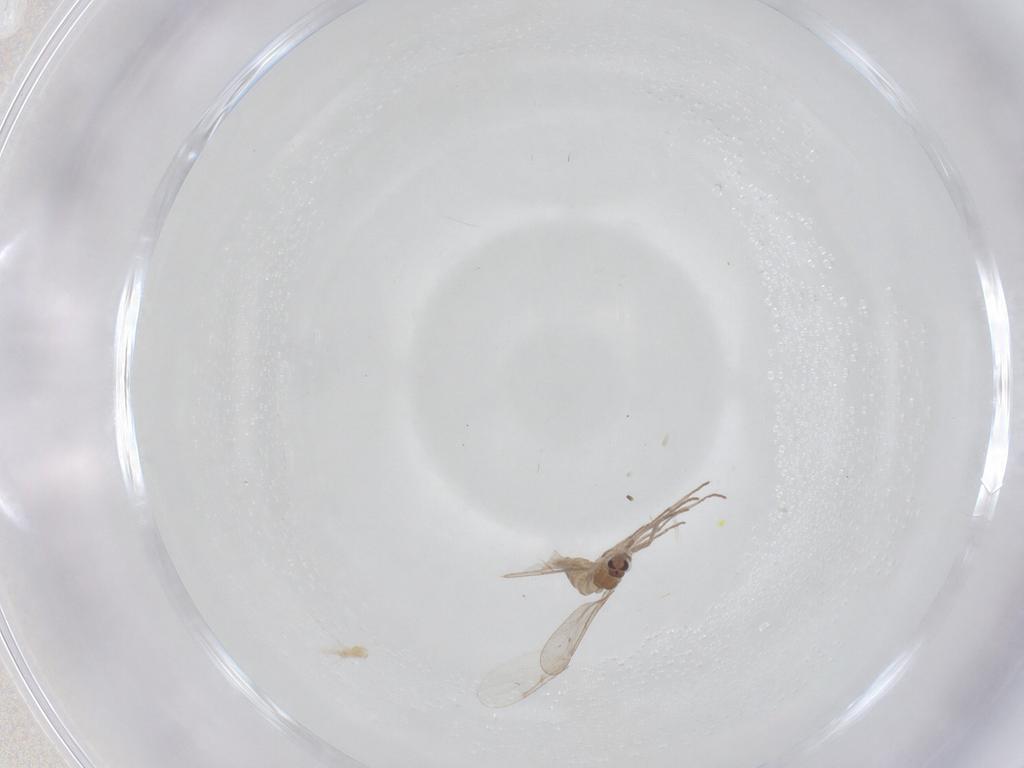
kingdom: Animalia
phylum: Arthropoda
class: Insecta
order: Diptera
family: Cecidomyiidae
